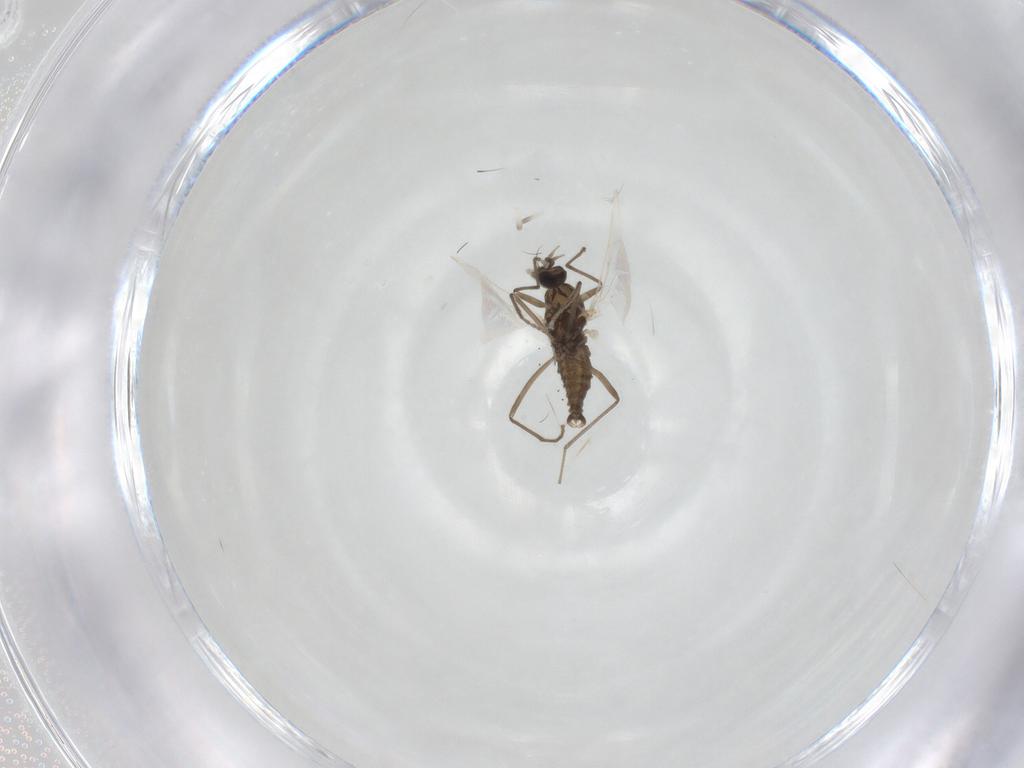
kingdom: Animalia
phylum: Arthropoda
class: Insecta
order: Diptera
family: Cecidomyiidae
